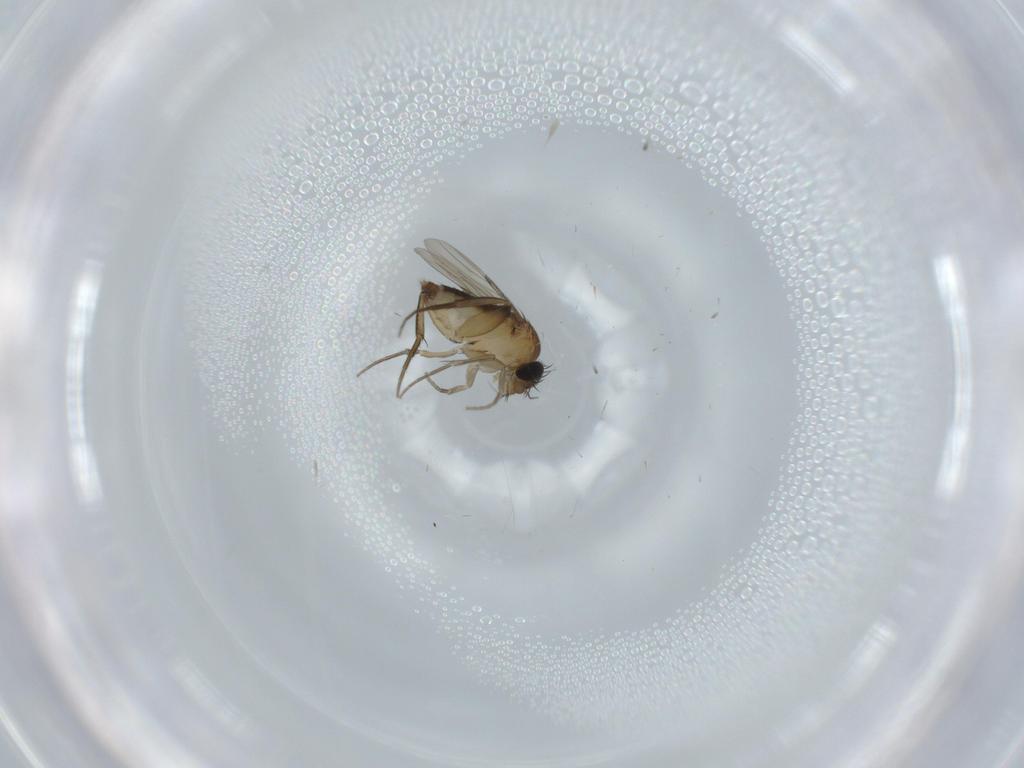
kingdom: Animalia
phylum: Arthropoda
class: Insecta
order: Diptera
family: Phoridae
